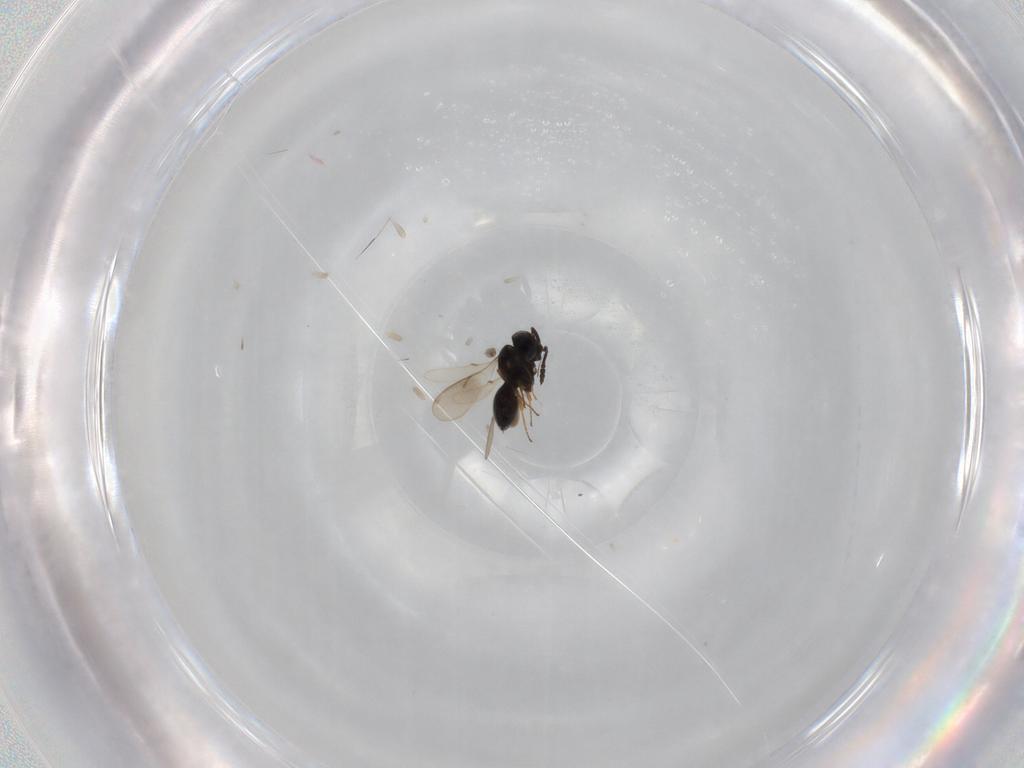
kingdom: Animalia
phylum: Arthropoda
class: Insecta
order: Hymenoptera
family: Scelionidae
